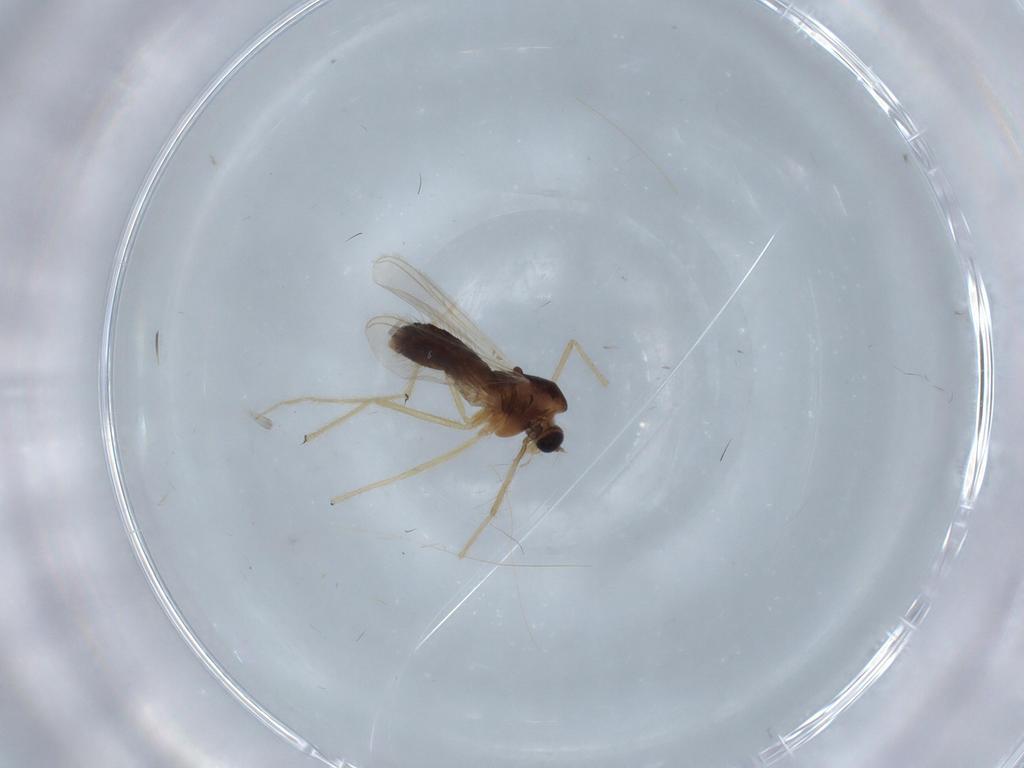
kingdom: Animalia
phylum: Arthropoda
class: Insecta
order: Diptera
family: Chironomidae
